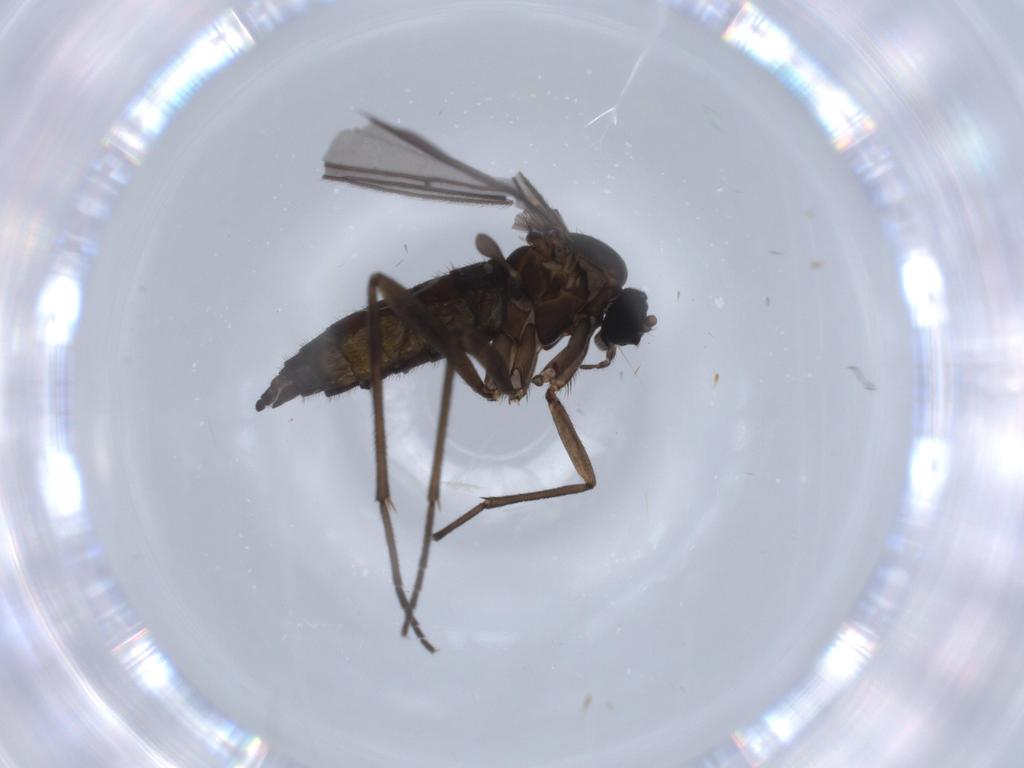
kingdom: Animalia
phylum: Arthropoda
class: Insecta
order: Diptera
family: Sciaridae
